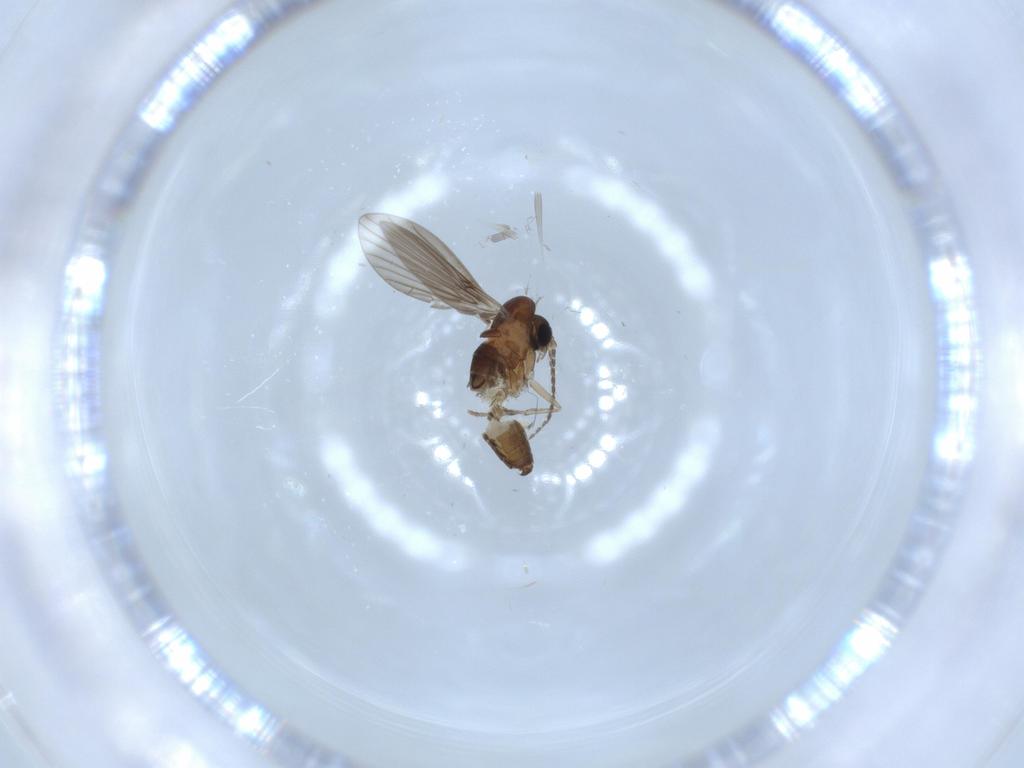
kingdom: Animalia
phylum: Arthropoda
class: Insecta
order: Diptera
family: Psychodidae
